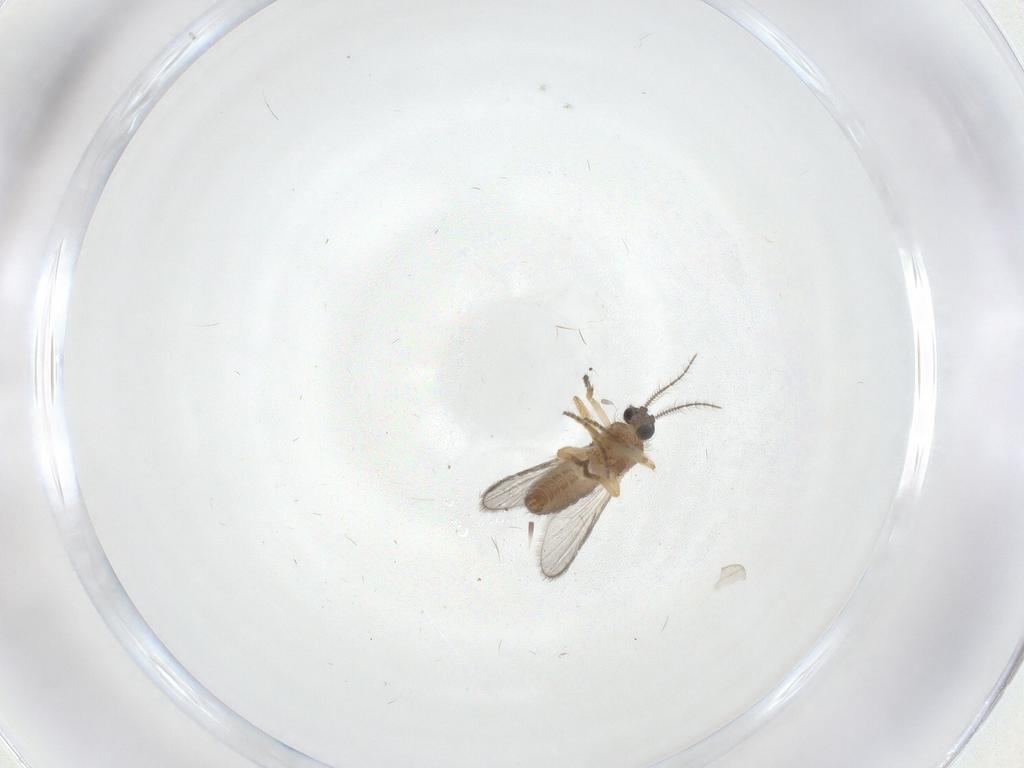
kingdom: Animalia
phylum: Arthropoda
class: Insecta
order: Diptera
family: Ceratopogonidae
